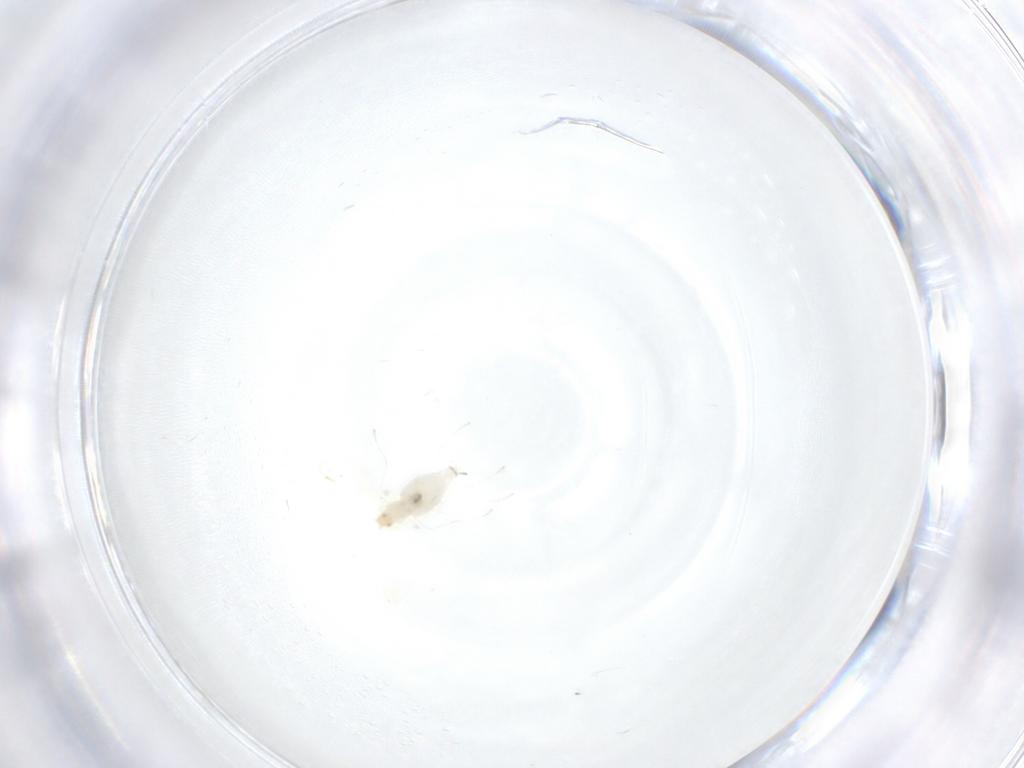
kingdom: Animalia
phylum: Arthropoda
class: Insecta
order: Diptera
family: Cecidomyiidae
